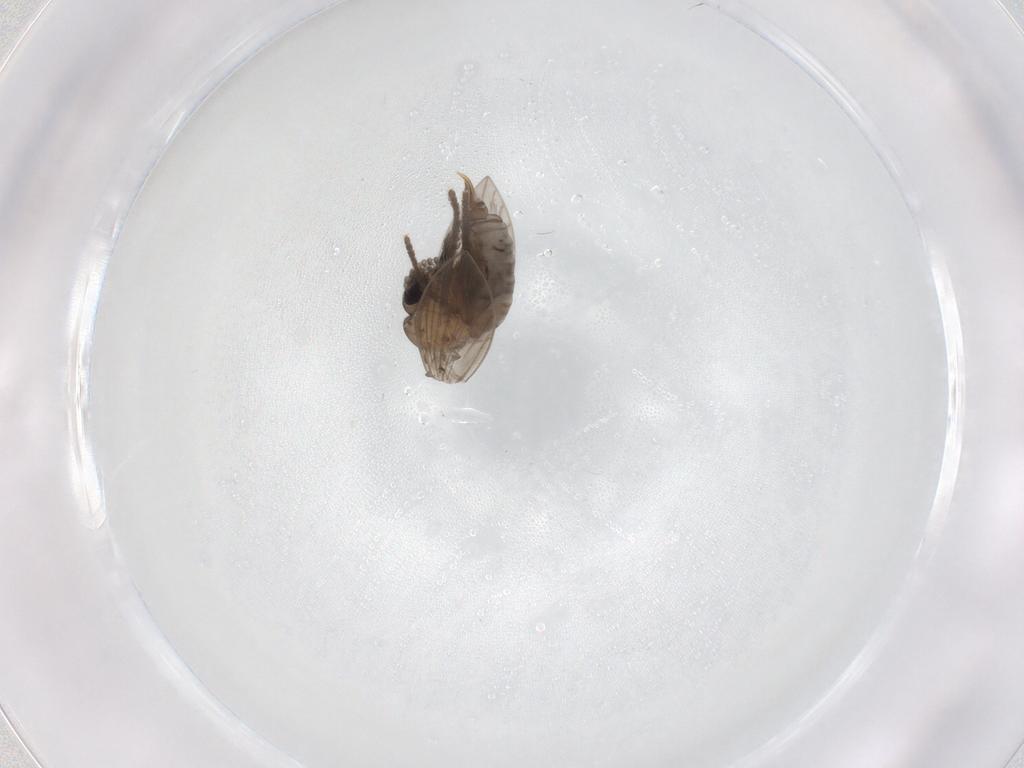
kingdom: Animalia
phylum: Arthropoda
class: Insecta
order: Diptera
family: Psychodidae
